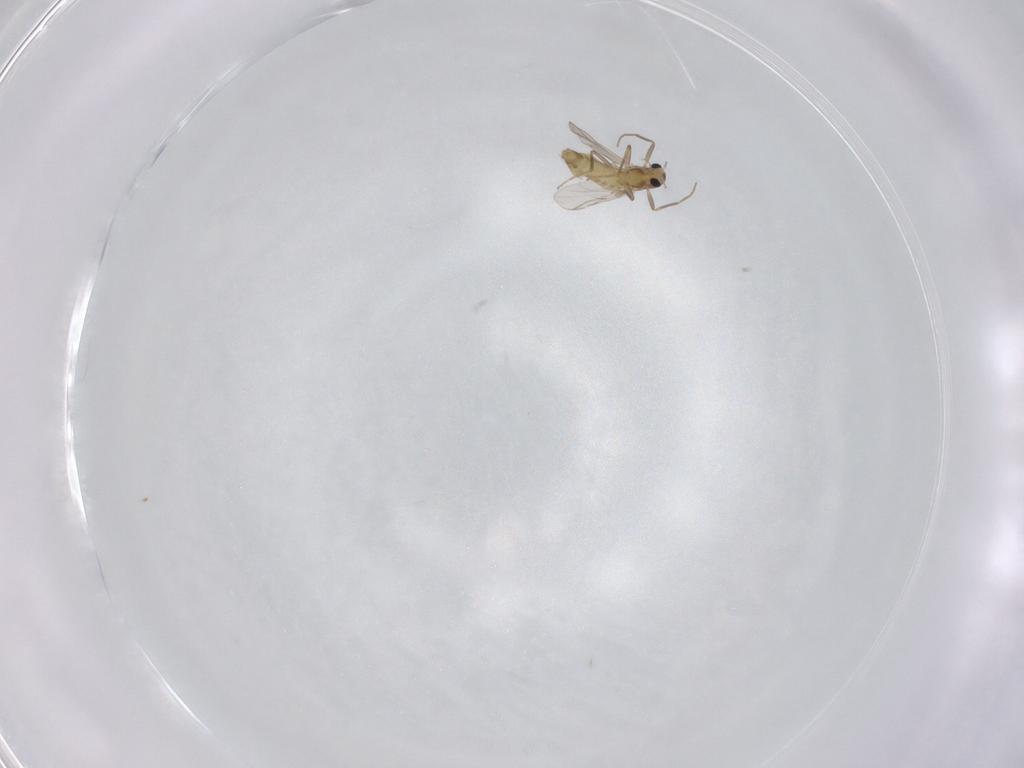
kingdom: Animalia
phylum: Arthropoda
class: Insecta
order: Diptera
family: Chironomidae
